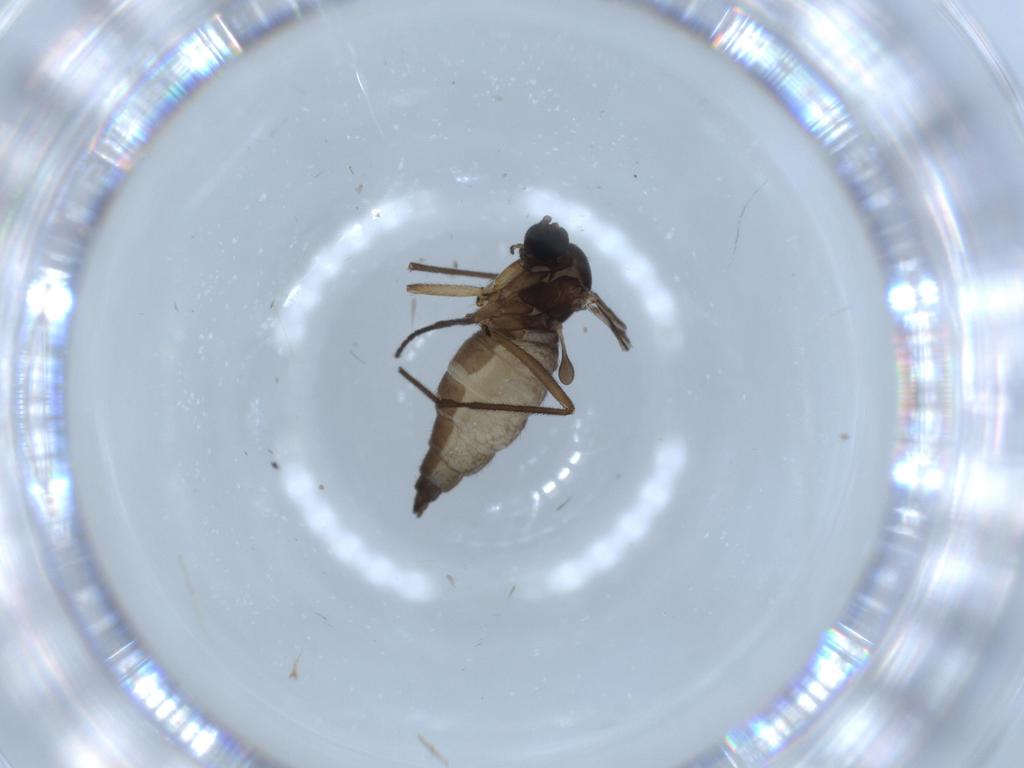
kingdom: Animalia
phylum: Arthropoda
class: Insecta
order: Diptera
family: Sciaridae
